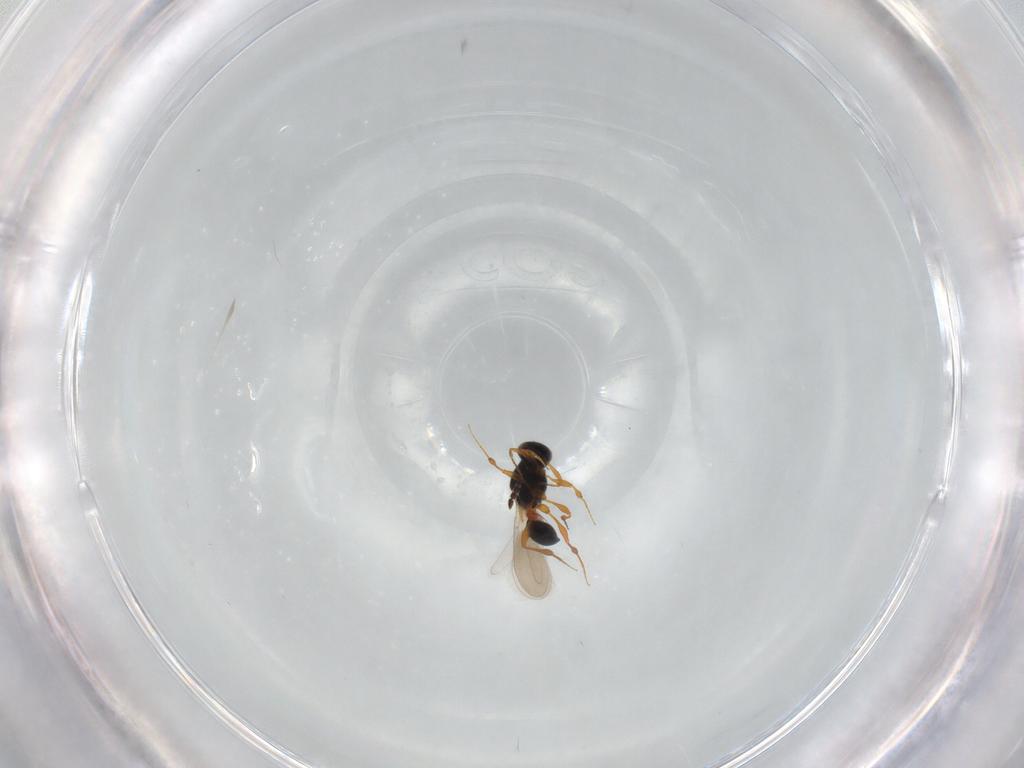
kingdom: Animalia
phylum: Arthropoda
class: Insecta
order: Hymenoptera
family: Platygastridae
